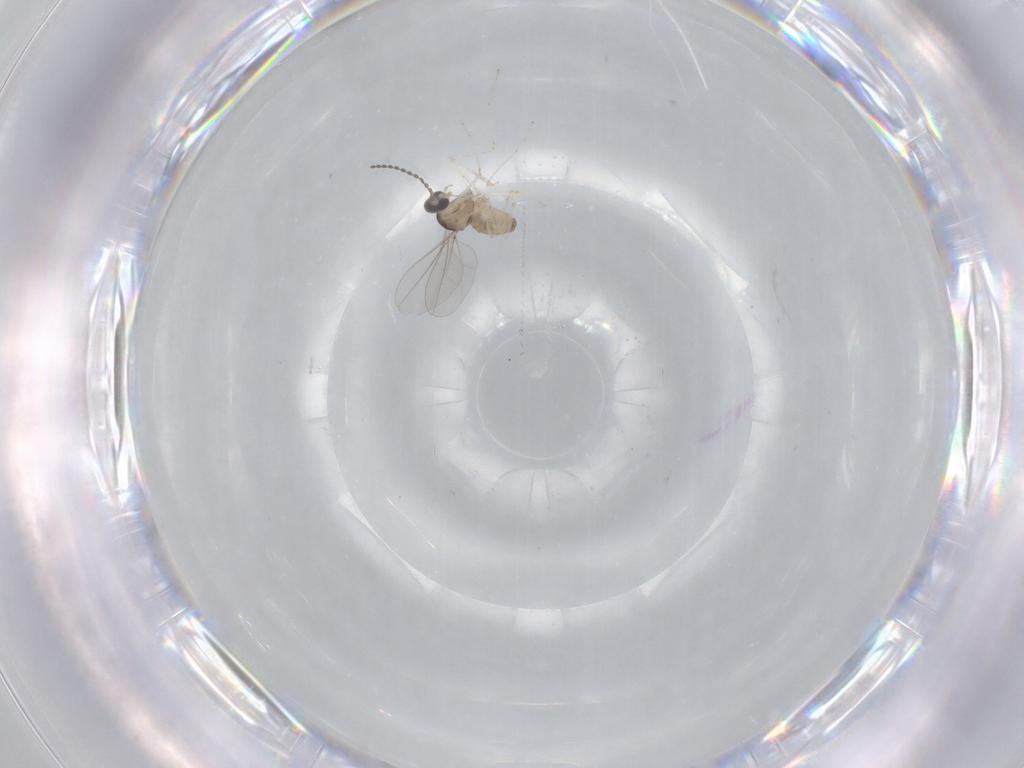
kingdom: Animalia
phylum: Arthropoda
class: Insecta
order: Diptera
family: Cecidomyiidae
